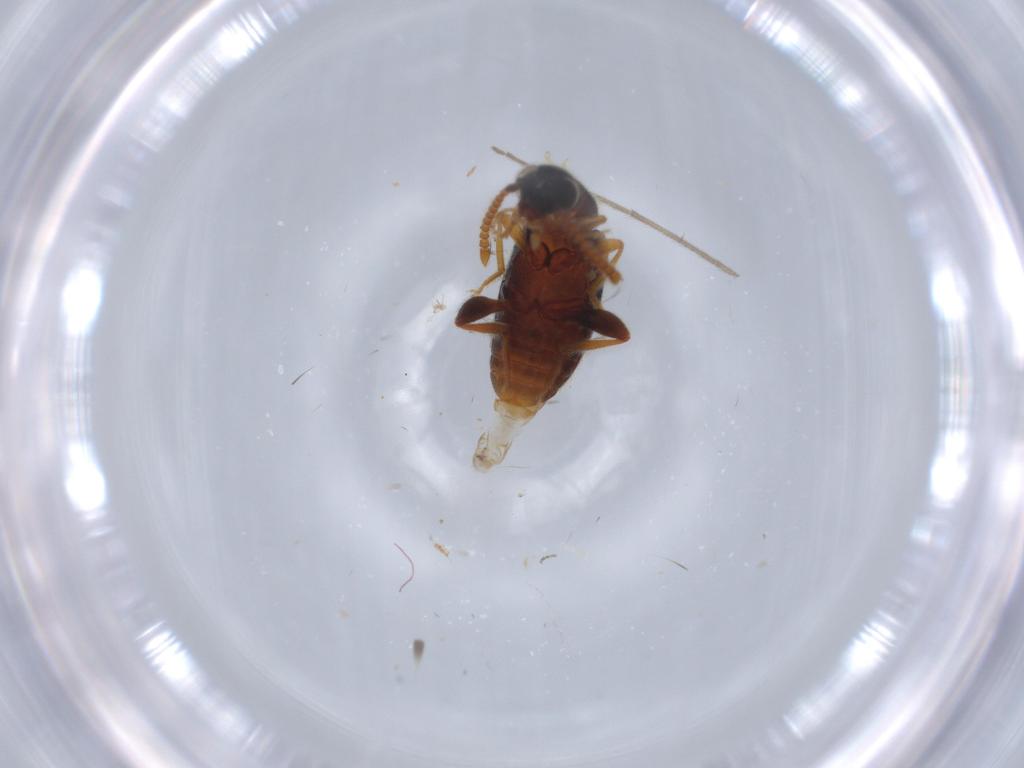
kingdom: Animalia
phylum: Arthropoda
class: Insecta
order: Coleoptera
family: Aderidae
